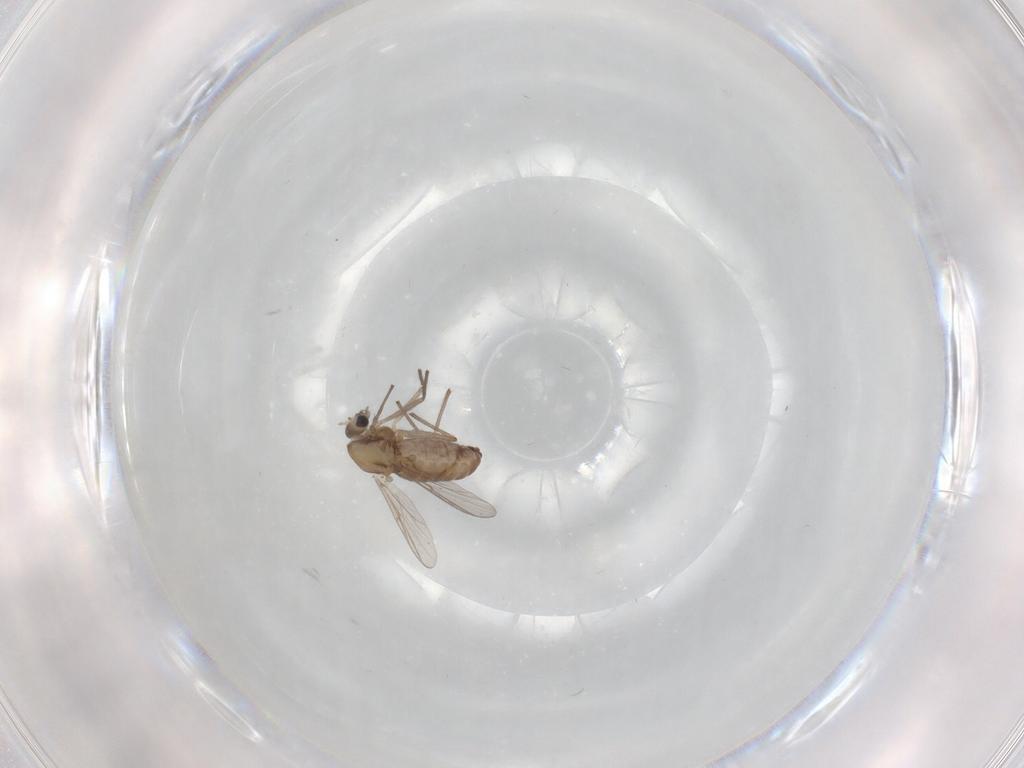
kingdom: Animalia
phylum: Arthropoda
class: Insecta
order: Diptera
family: Chironomidae
